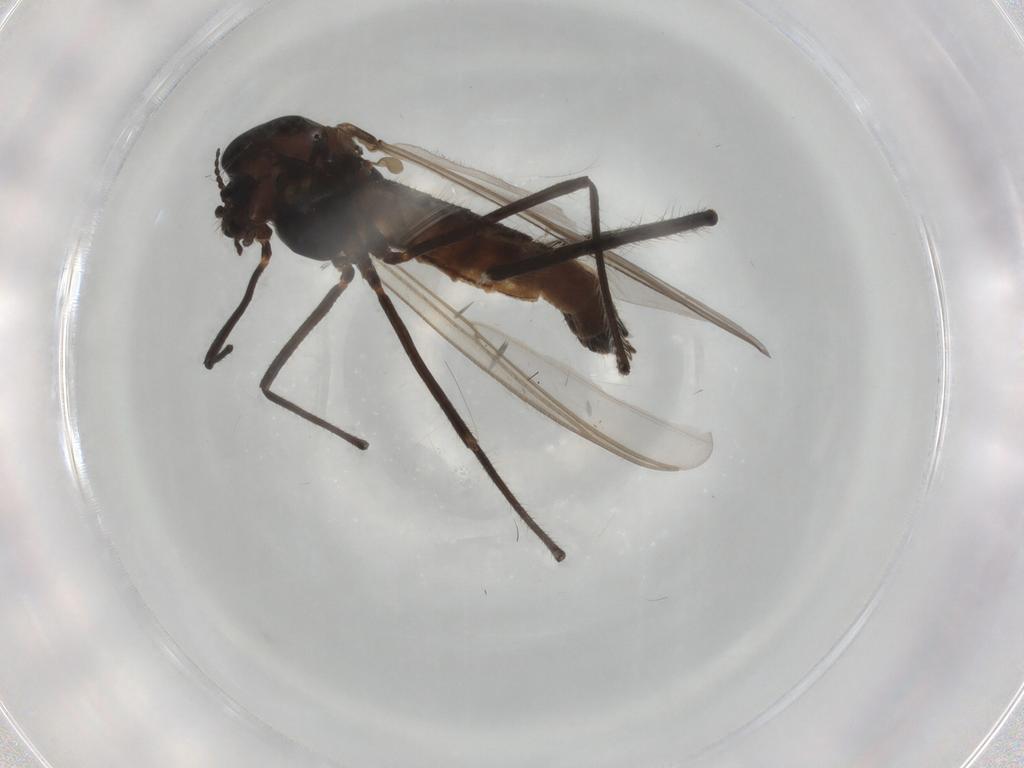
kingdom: Animalia
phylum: Arthropoda
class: Insecta
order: Diptera
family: Chironomidae
